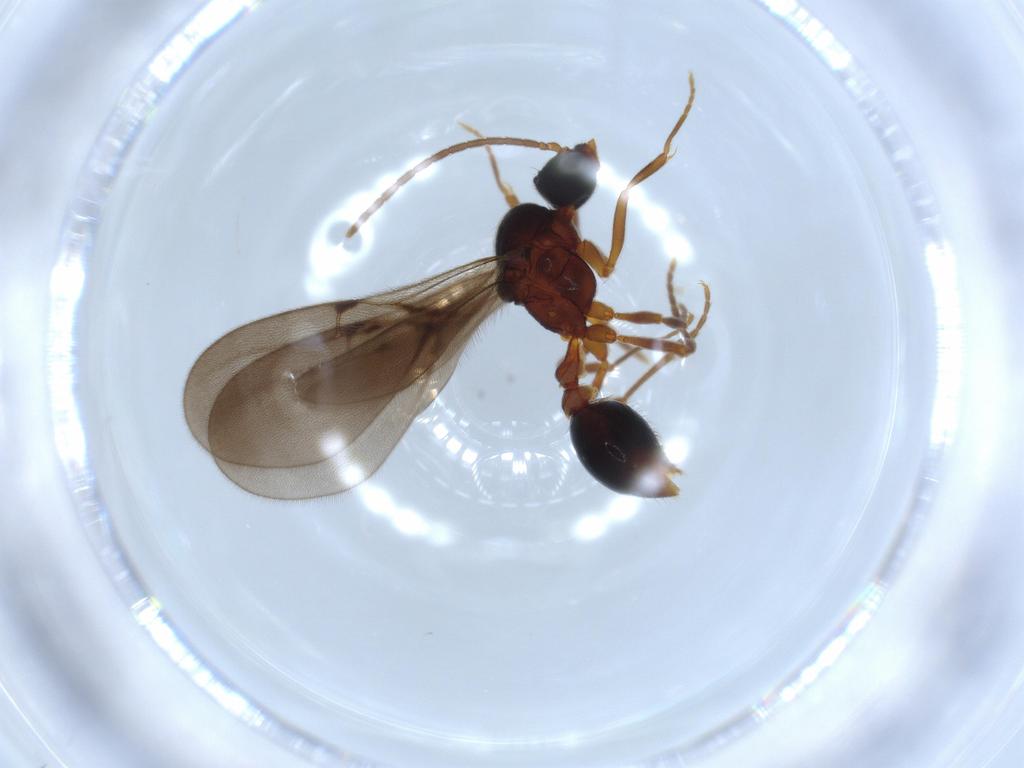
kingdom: Animalia
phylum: Arthropoda
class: Insecta
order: Hymenoptera
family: Formicidae
